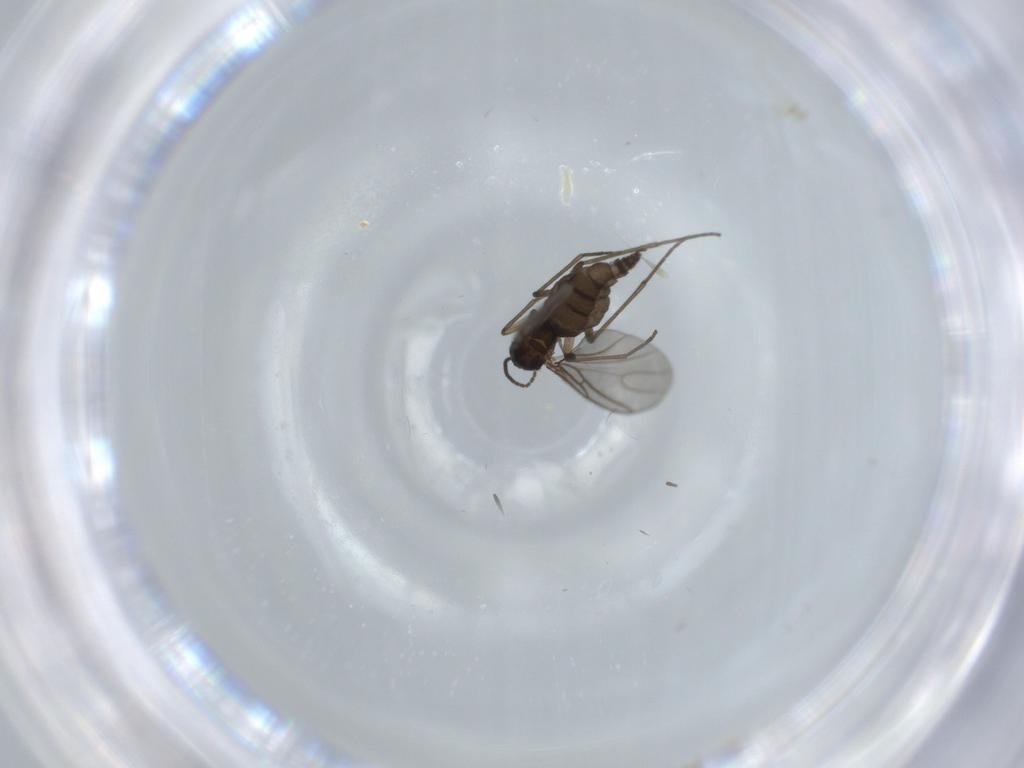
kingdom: Animalia
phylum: Arthropoda
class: Insecta
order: Diptera
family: Sciaridae
